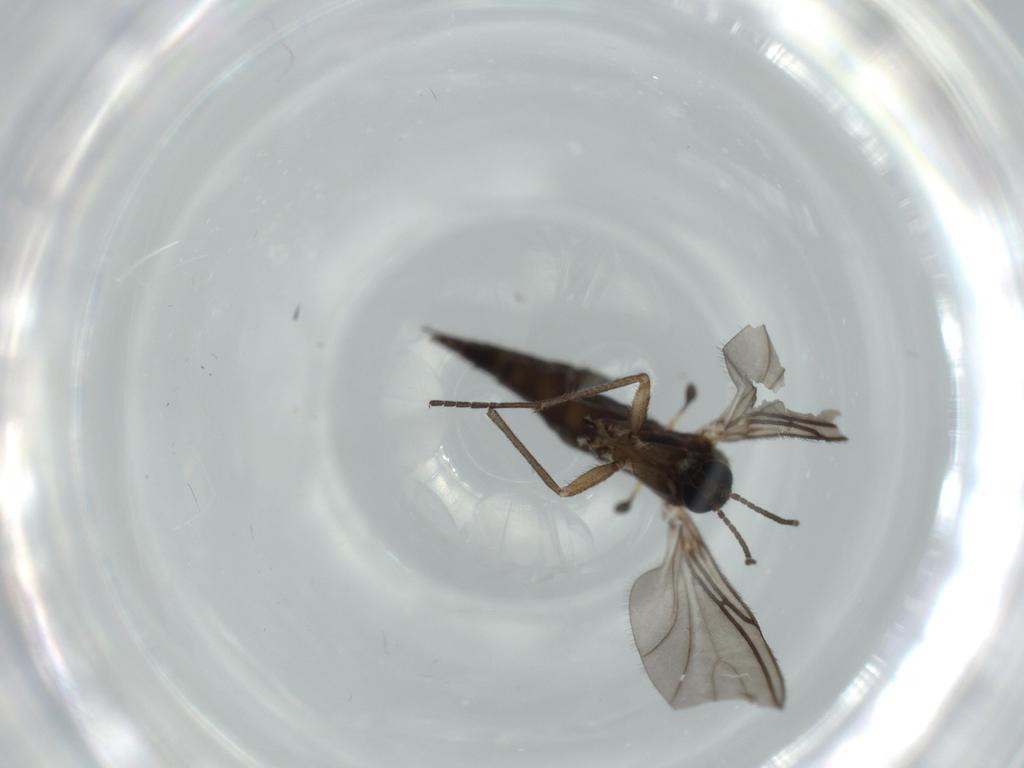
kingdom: Animalia
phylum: Arthropoda
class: Insecta
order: Diptera
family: Sciaridae
